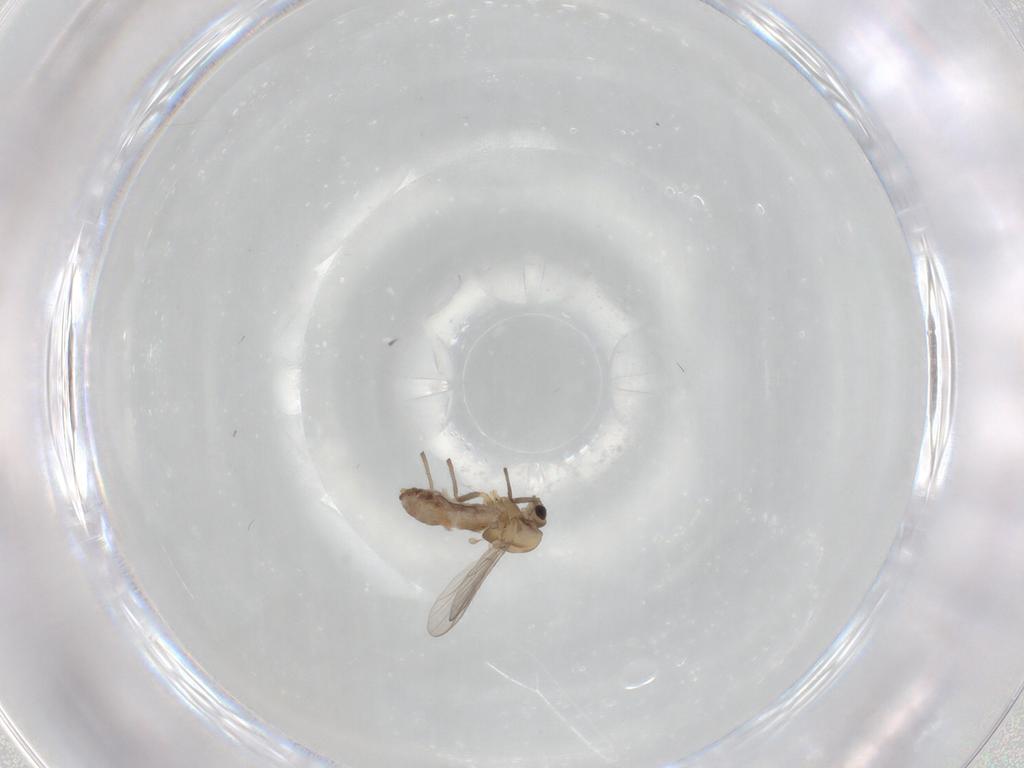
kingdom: Animalia
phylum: Arthropoda
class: Insecta
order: Diptera
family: Chironomidae
